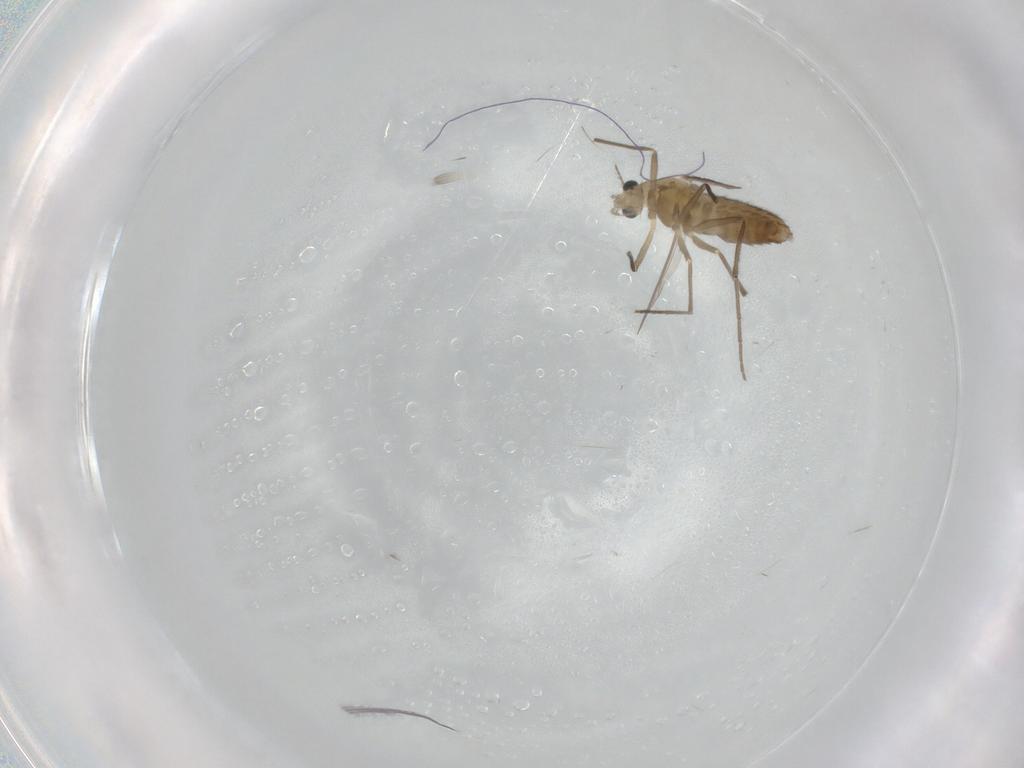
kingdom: Animalia
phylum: Arthropoda
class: Insecta
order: Diptera
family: Chironomidae
